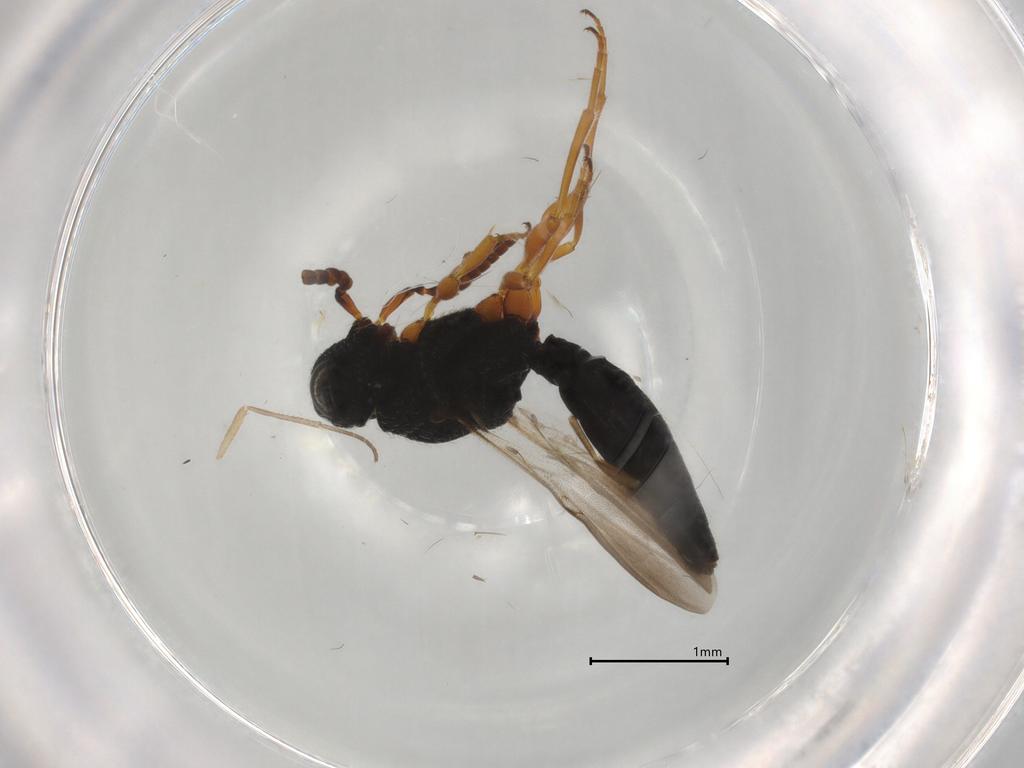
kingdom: Animalia
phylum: Arthropoda
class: Insecta
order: Hymenoptera
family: Scelionidae
